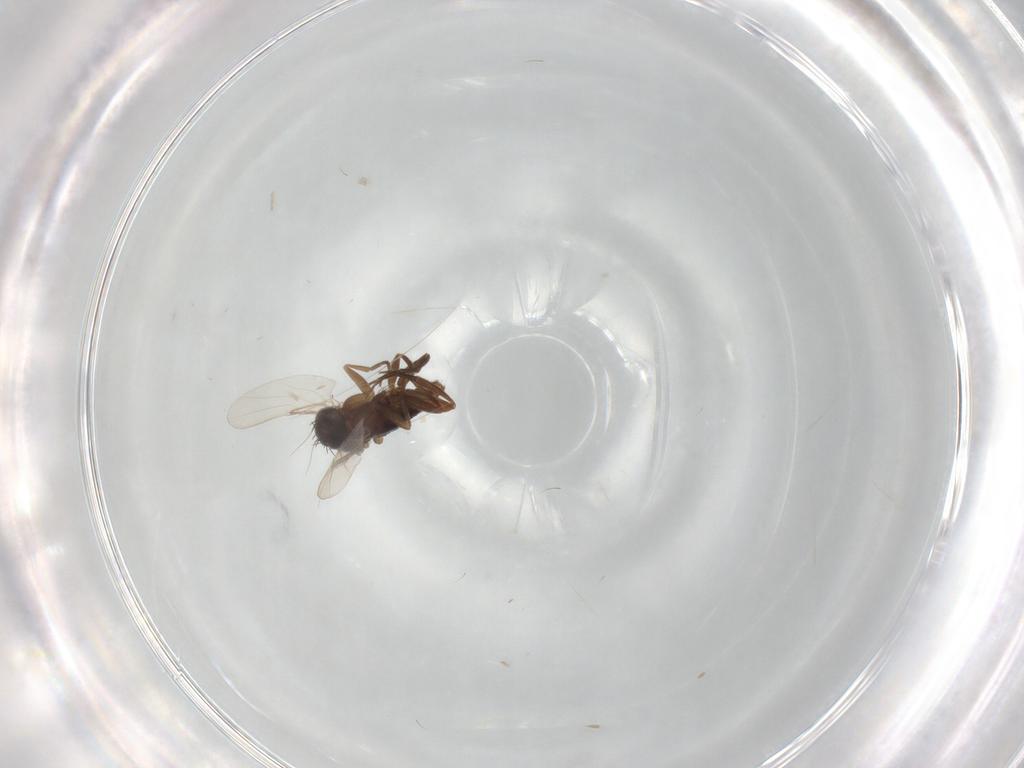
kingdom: Animalia
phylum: Arthropoda
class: Insecta
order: Diptera
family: Phoridae
